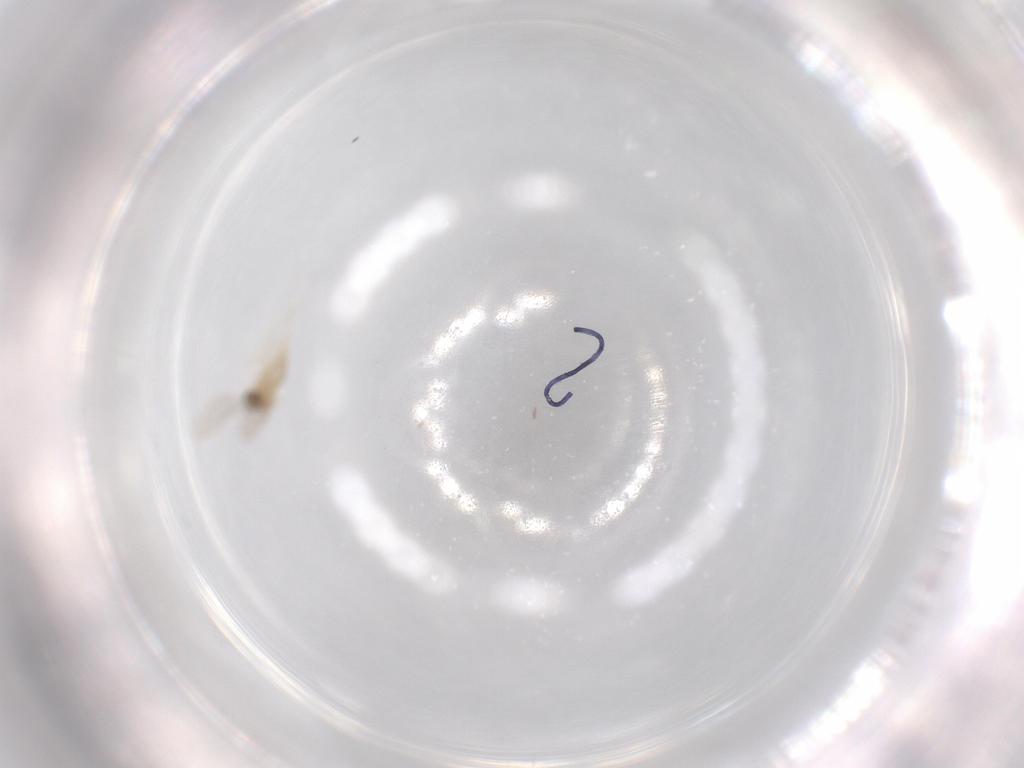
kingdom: Animalia
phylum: Arthropoda
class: Insecta
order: Diptera
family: Cecidomyiidae
